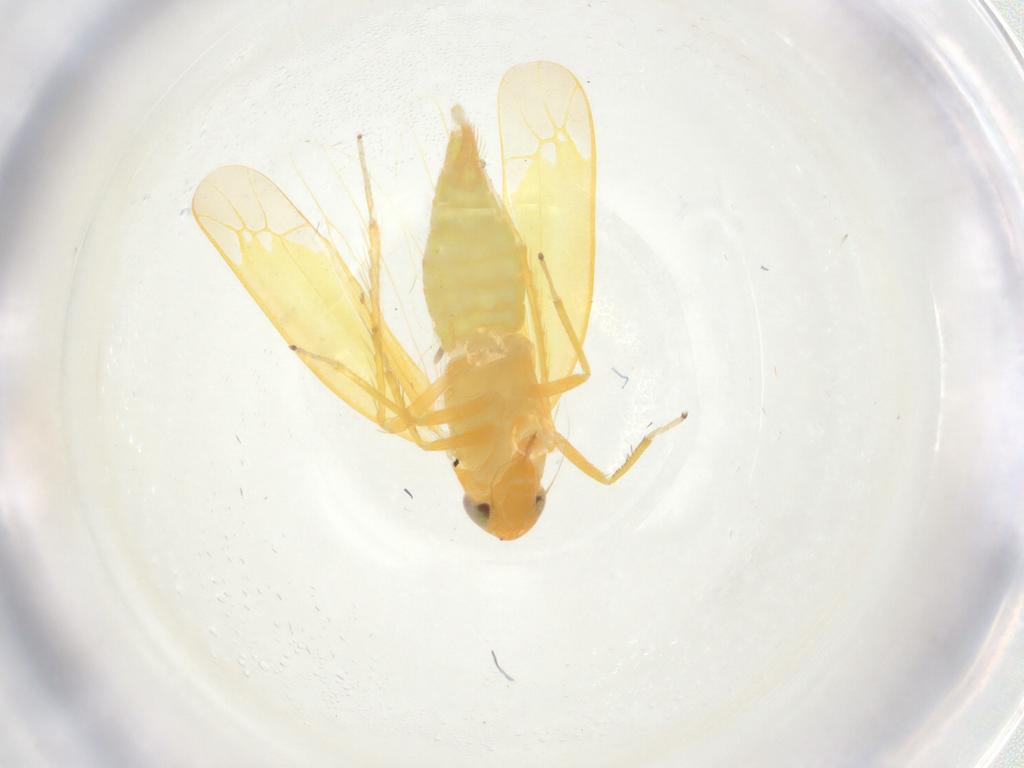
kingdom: Animalia
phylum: Arthropoda
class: Insecta
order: Hemiptera
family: Cicadellidae
